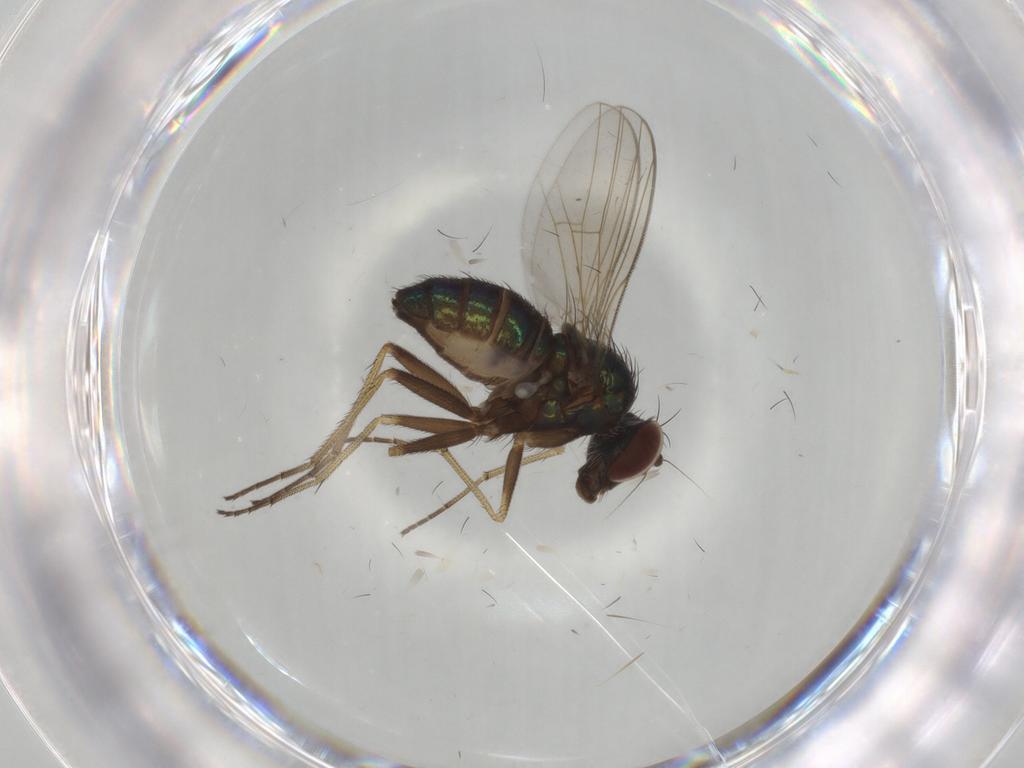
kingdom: Animalia
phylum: Arthropoda
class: Insecta
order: Diptera
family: Dolichopodidae
